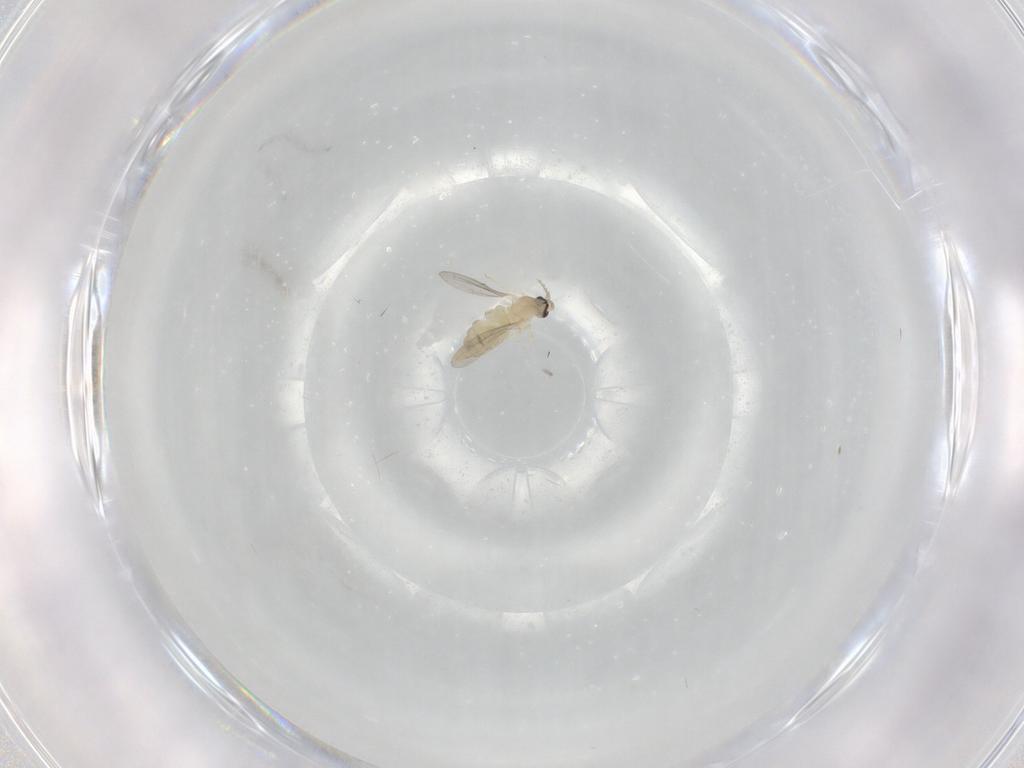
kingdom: Animalia
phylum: Arthropoda
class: Insecta
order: Diptera
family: Cecidomyiidae
